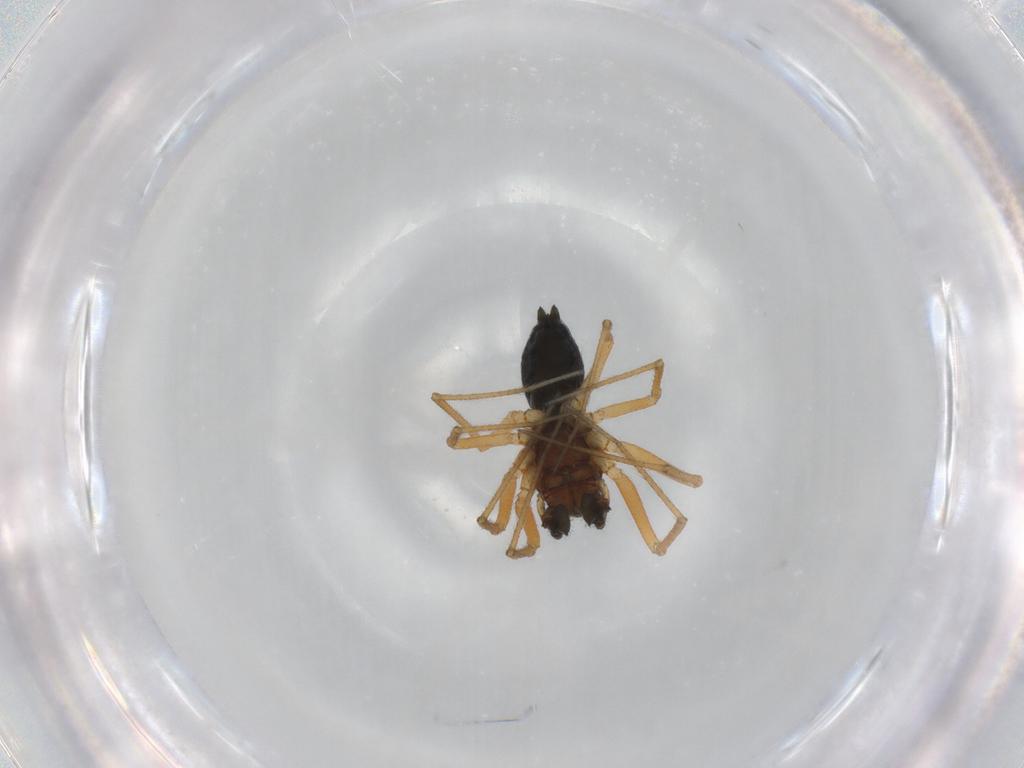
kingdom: Animalia
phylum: Arthropoda
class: Arachnida
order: Araneae
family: Linyphiidae
